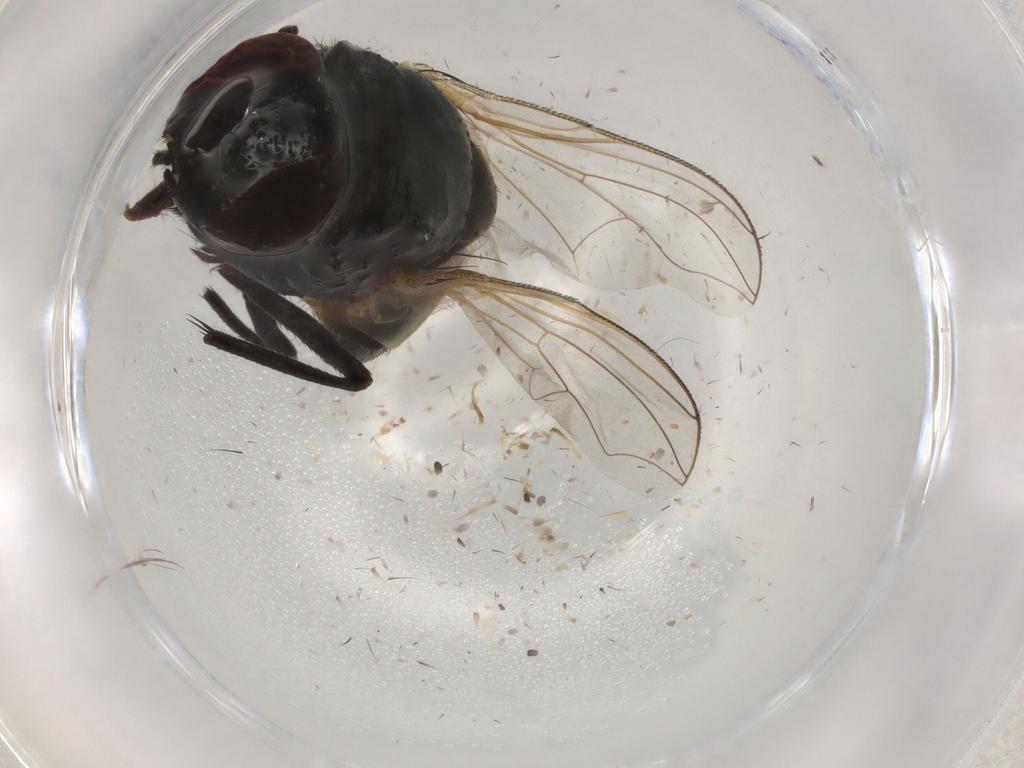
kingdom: Animalia
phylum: Arthropoda
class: Insecta
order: Diptera
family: Muscidae
